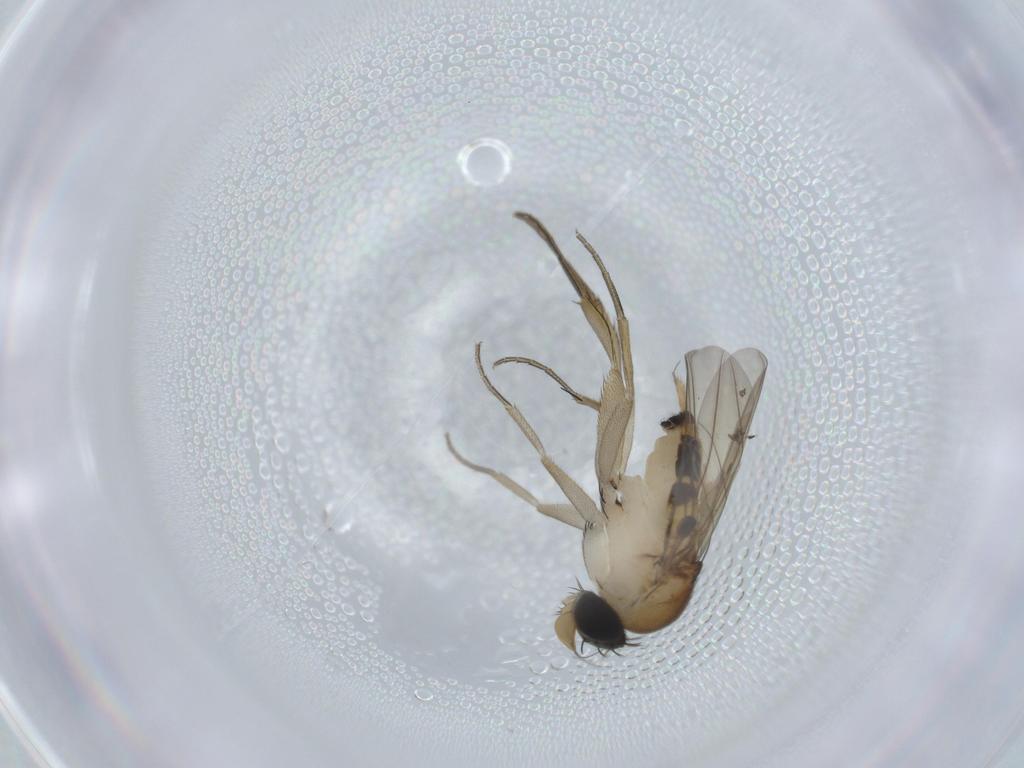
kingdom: Animalia
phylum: Arthropoda
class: Insecta
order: Diptera
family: Phoridae
